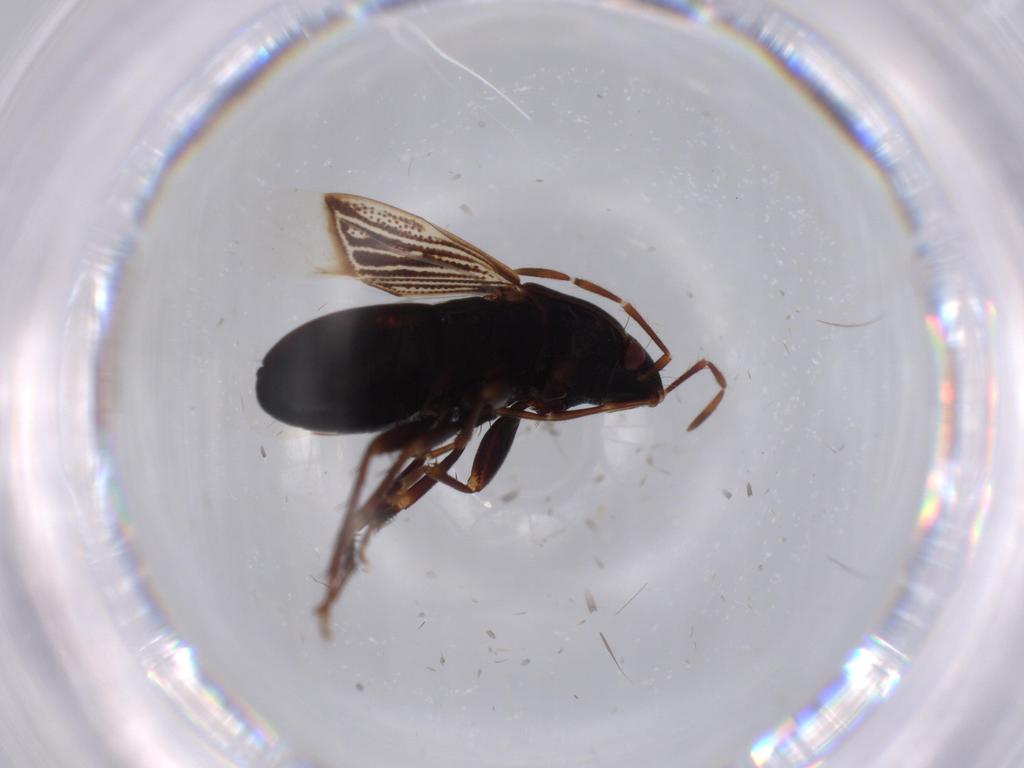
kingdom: Animalia
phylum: Arthropoda
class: Insecta
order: Hemiptera
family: Rhyparochromidae
